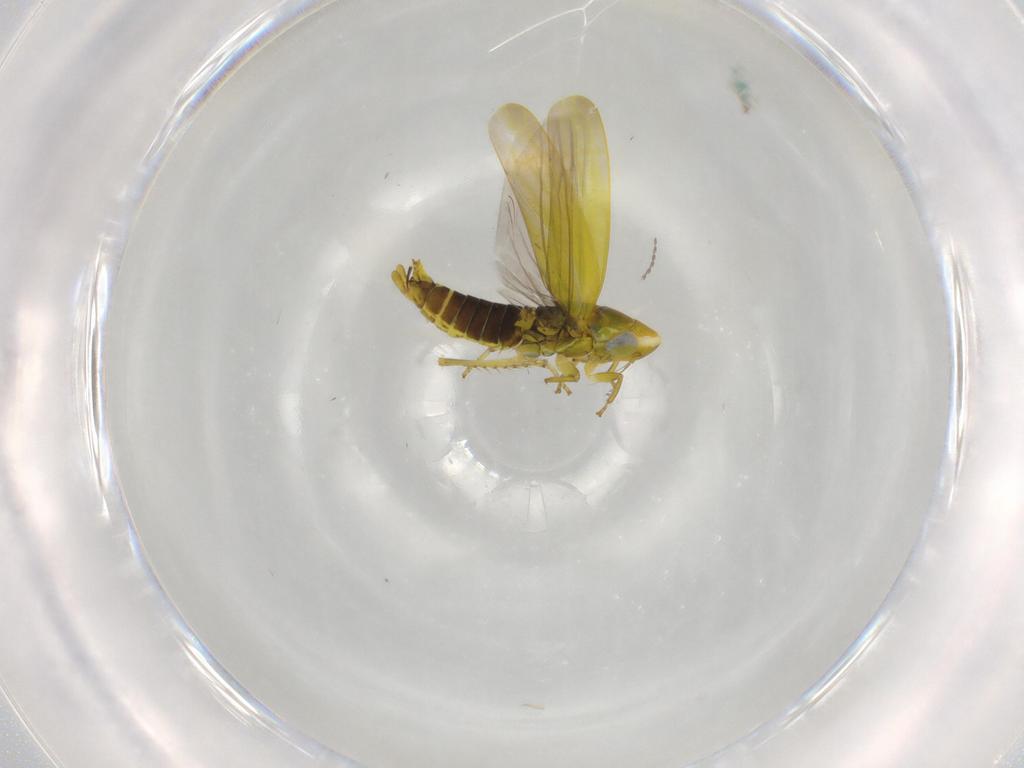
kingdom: Animalia
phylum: Arthropoda
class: Insecta
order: Hemiptera
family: Cicadellidae
